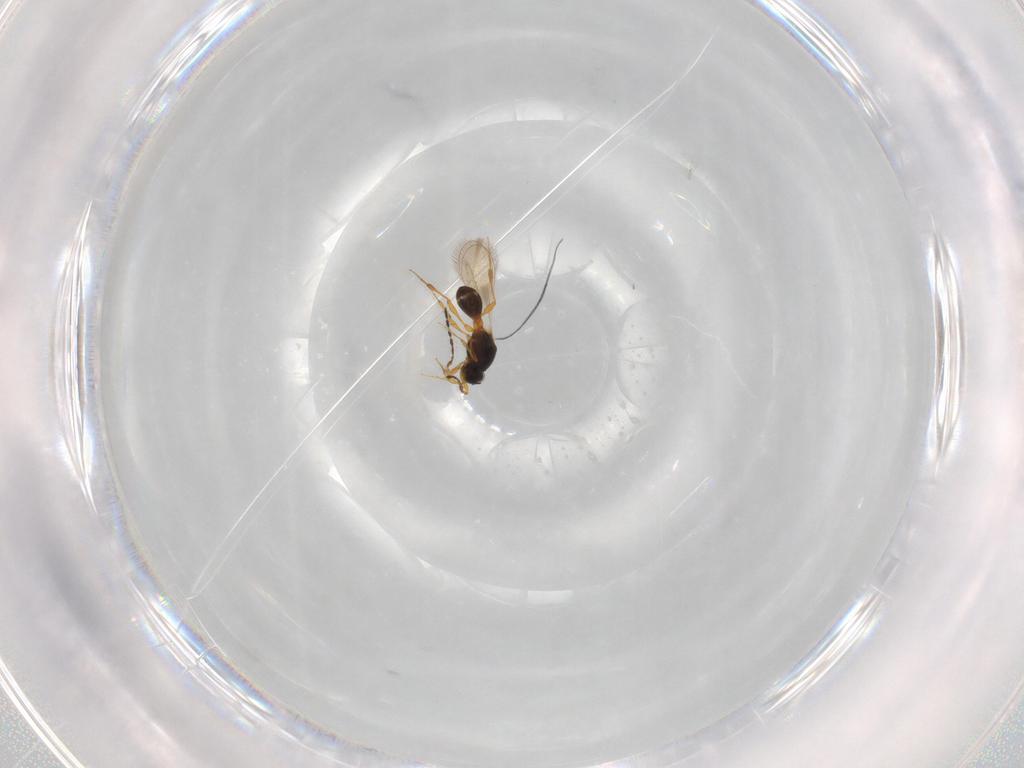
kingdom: Animalia
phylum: Arthropoda
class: Insecta
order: Hymenoptera
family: Platygastridae
